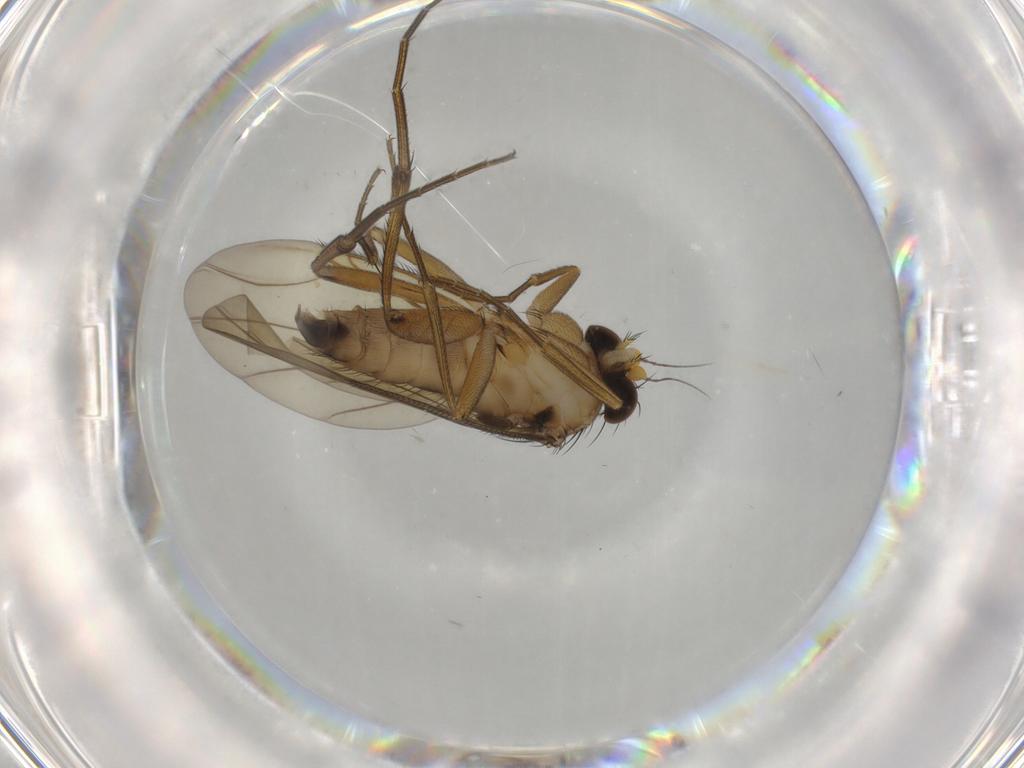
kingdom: Animalia
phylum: Arthropoda
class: Insecta
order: Diptera
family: Phoridae
